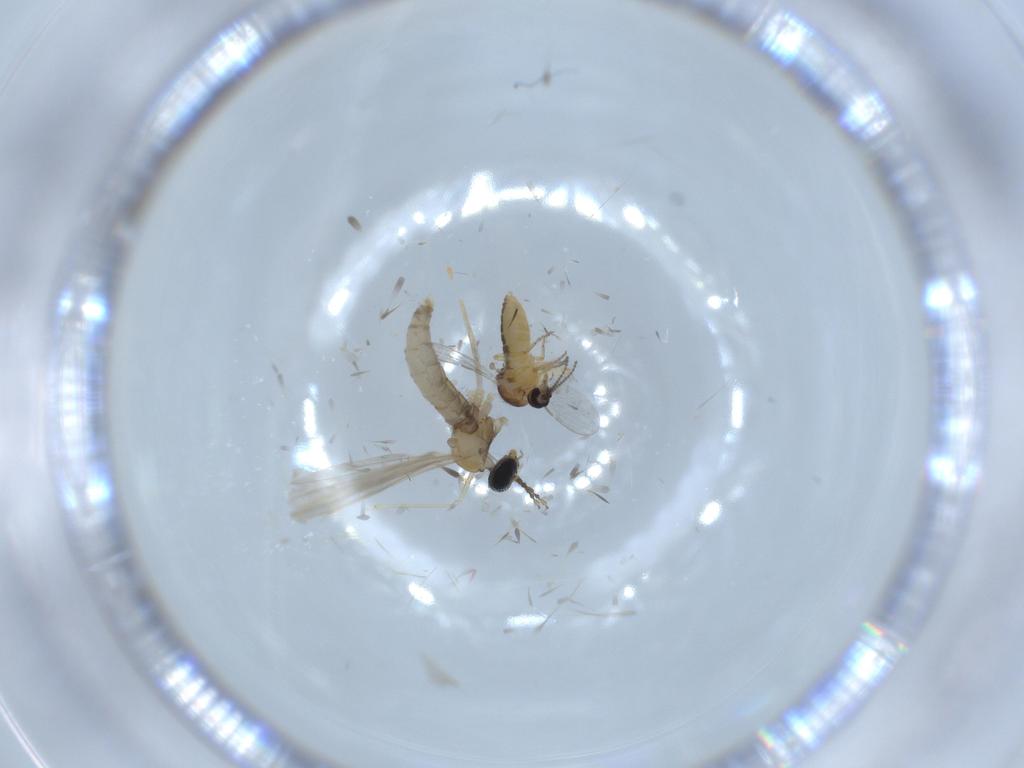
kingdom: Animalia
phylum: Arthropoda
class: Insecta
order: Diptera
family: Ceratopogonidae
